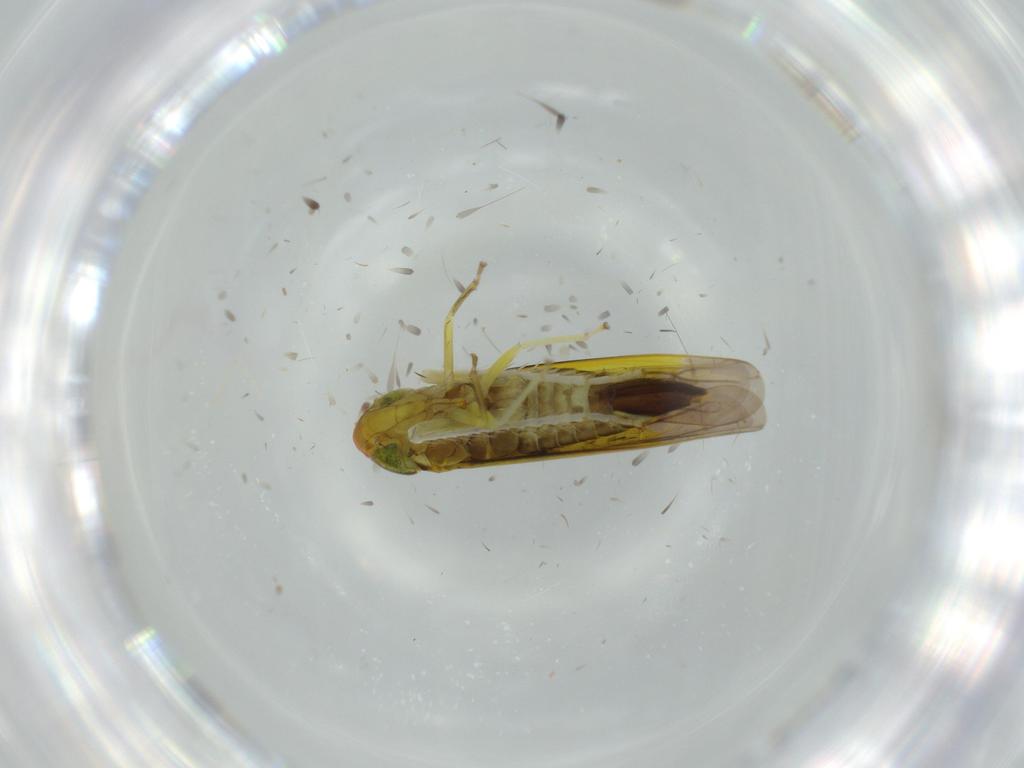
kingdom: Animalia
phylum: Arthropoda
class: Insecta
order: Hemiptera
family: Cicadellidae
